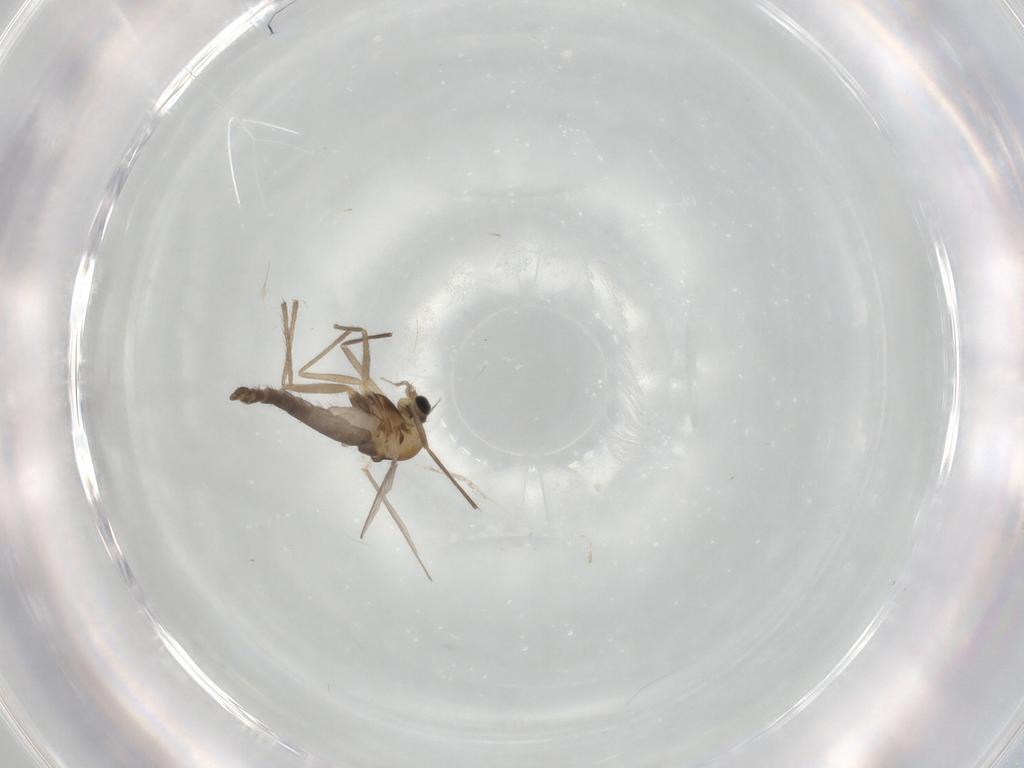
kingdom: Animalia
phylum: Arthropoda
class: Insecta
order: Diptera
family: Chironomidae
